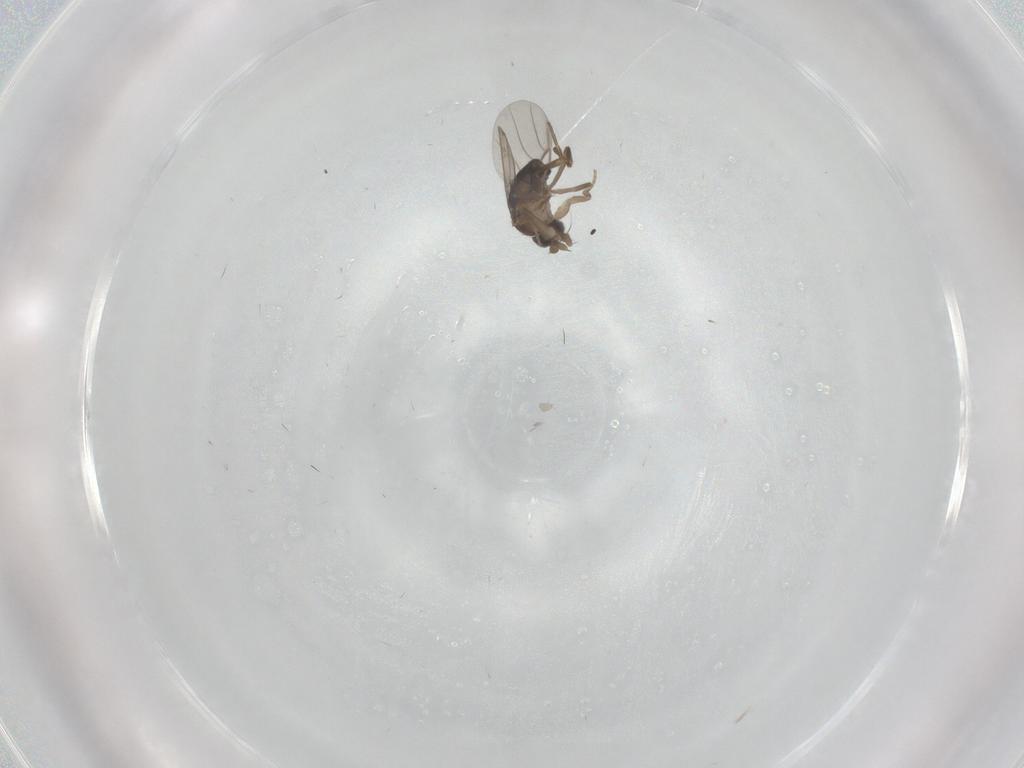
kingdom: Animalia
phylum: Arthropoda
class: Insecta
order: Diptera
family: Phoridae
